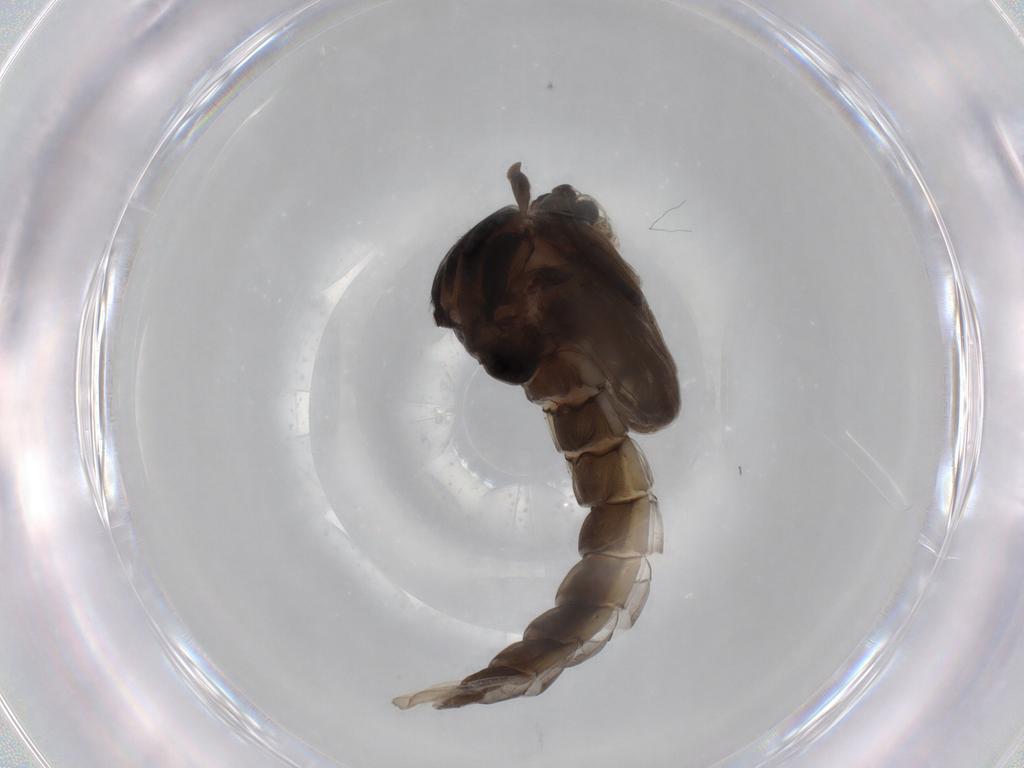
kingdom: Animalia
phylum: Arthropoda
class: Insecta
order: Diptera
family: Chironomidae
